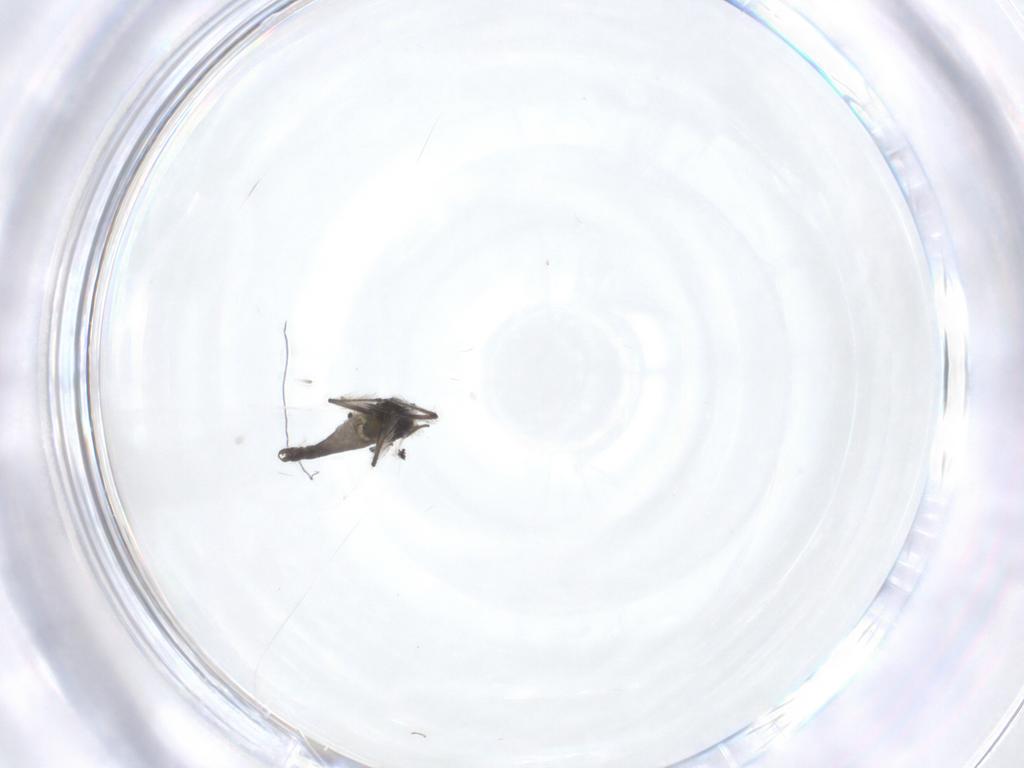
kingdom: Animalia
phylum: Arthropoda
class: Insecta
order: Diptera
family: Chironomidae
